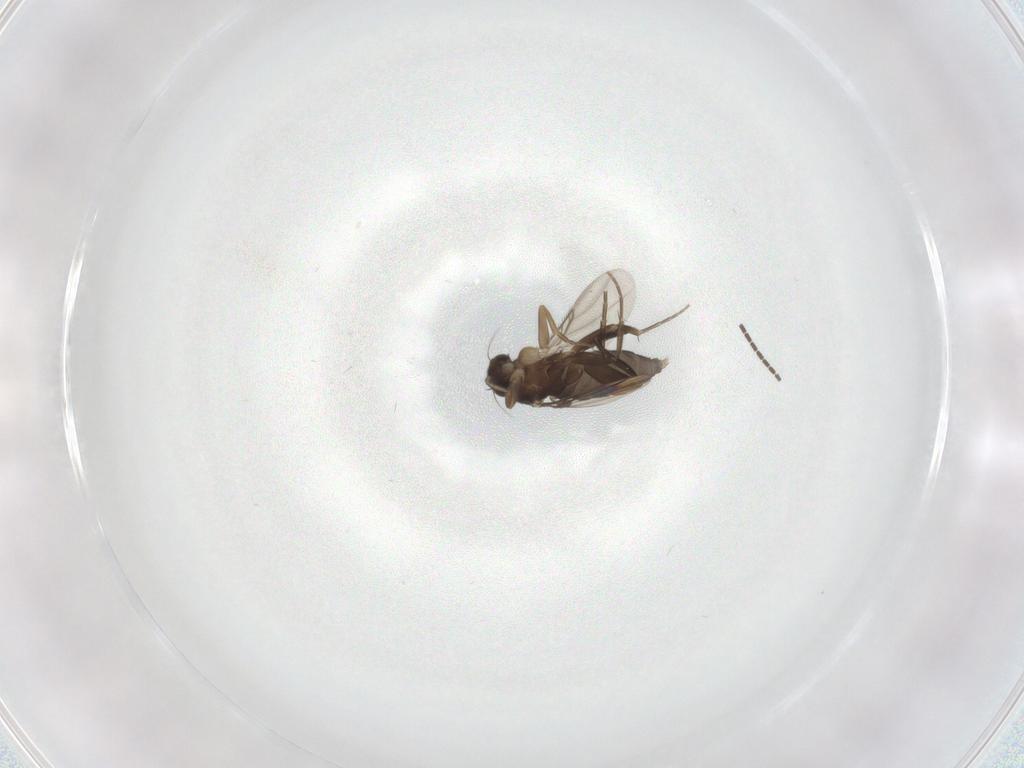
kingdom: Animalia
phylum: Arthropoda
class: Insecta
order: Diptera
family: Phoridae
